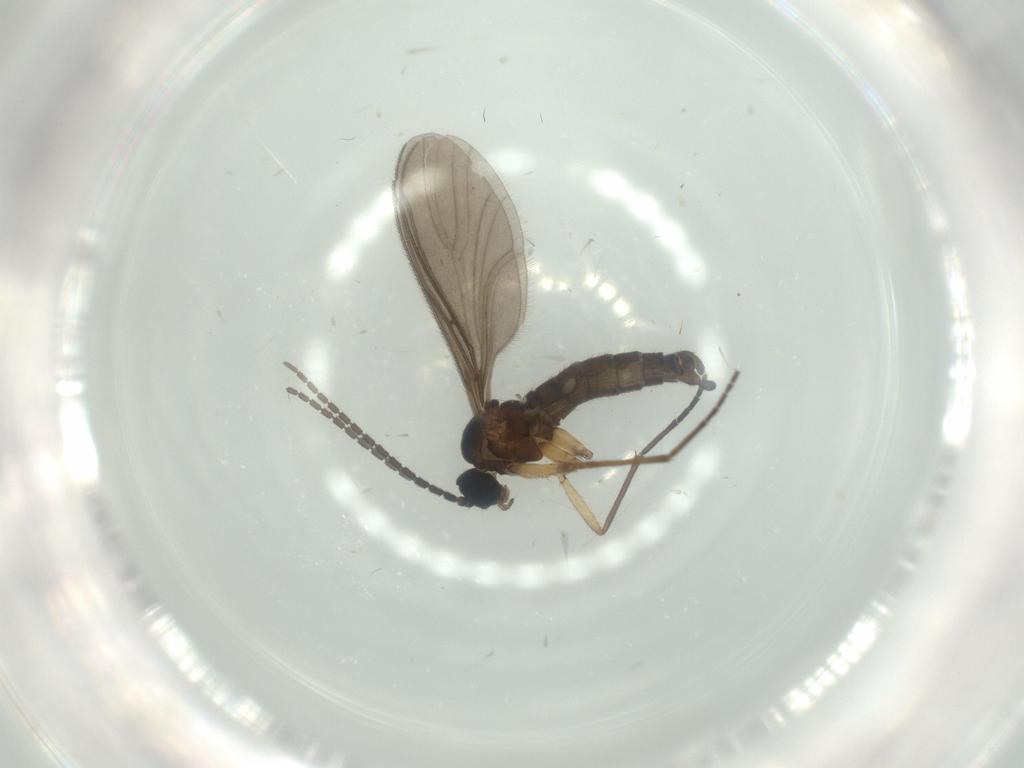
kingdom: Animalia
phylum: Arthropoda
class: Insecta
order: Diptera
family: Sciaridae
